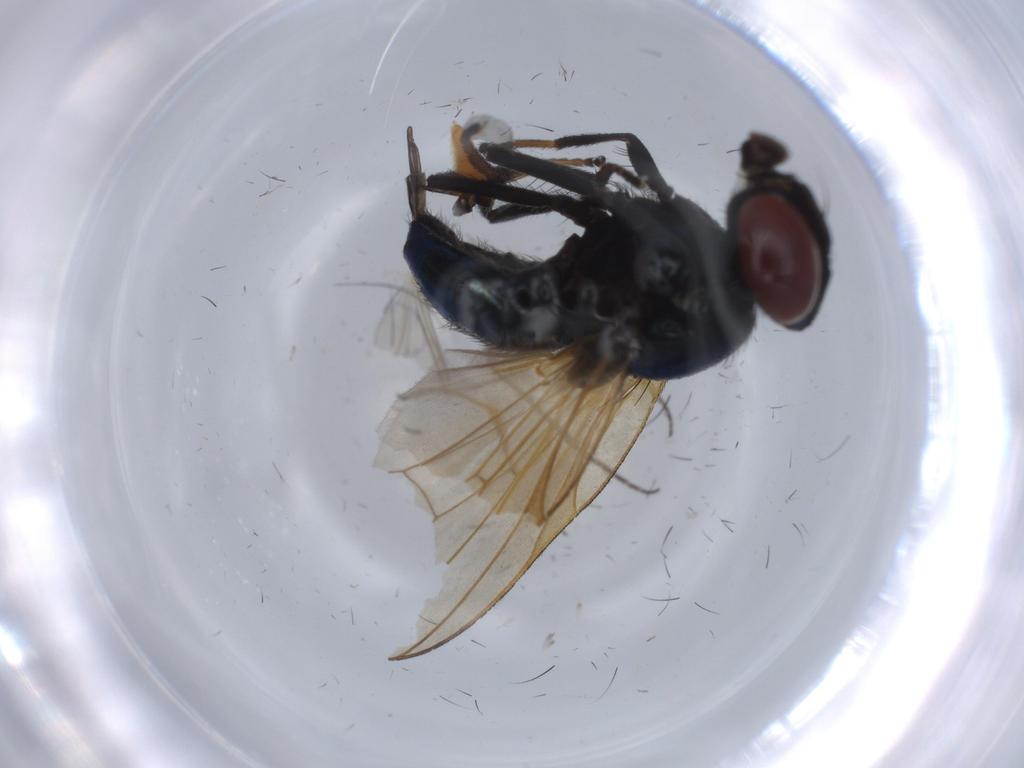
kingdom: Animalia
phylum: Arthropoda
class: Insecta
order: Diptera
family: Lonchaeidae
